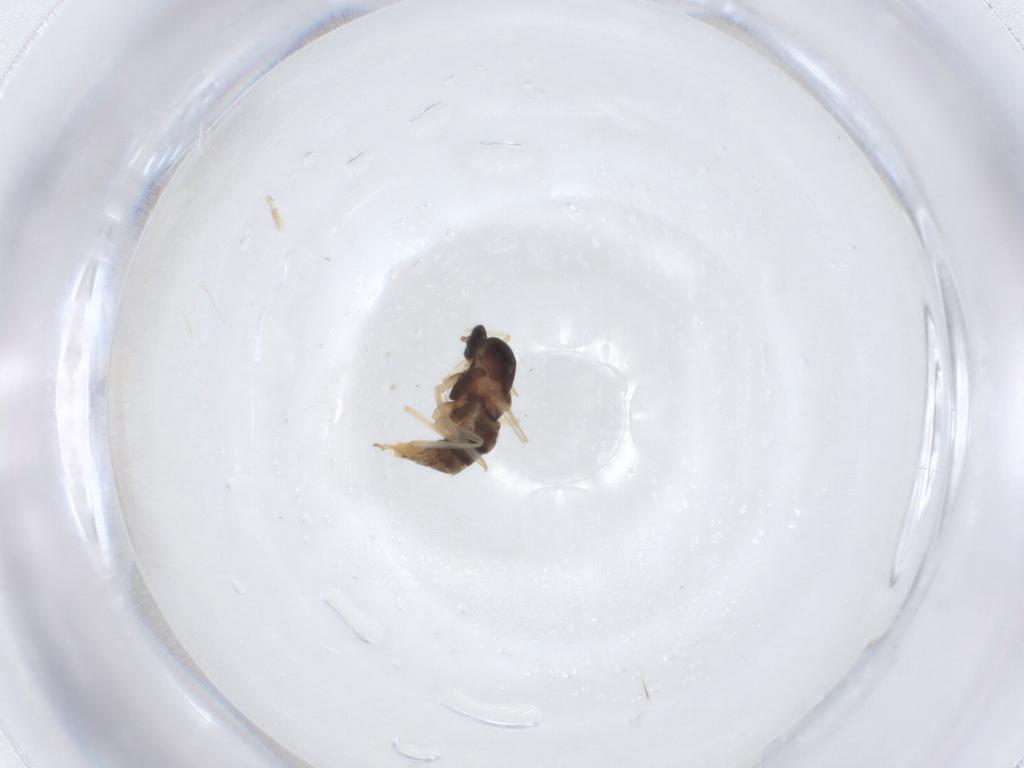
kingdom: Animalia
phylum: Arthropoda
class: Insecta
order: Diptera
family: Cecidomyiidae
